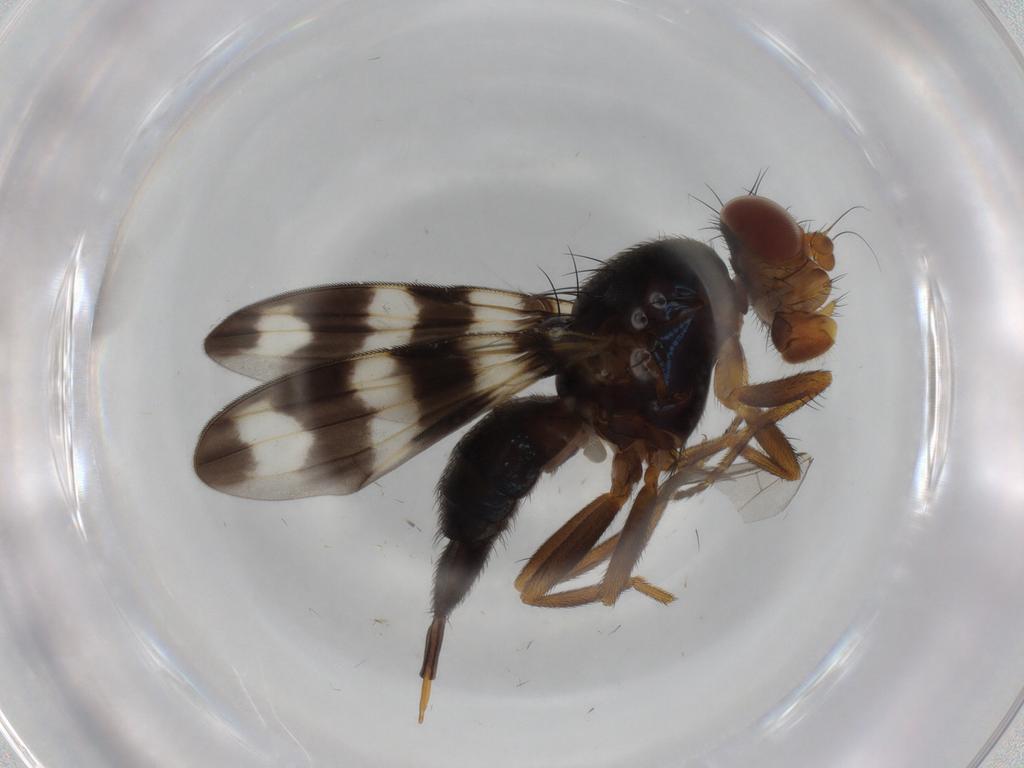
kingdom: Animalia
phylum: Arthropoda
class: Insecta
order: Diptera
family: Ulidiidae
